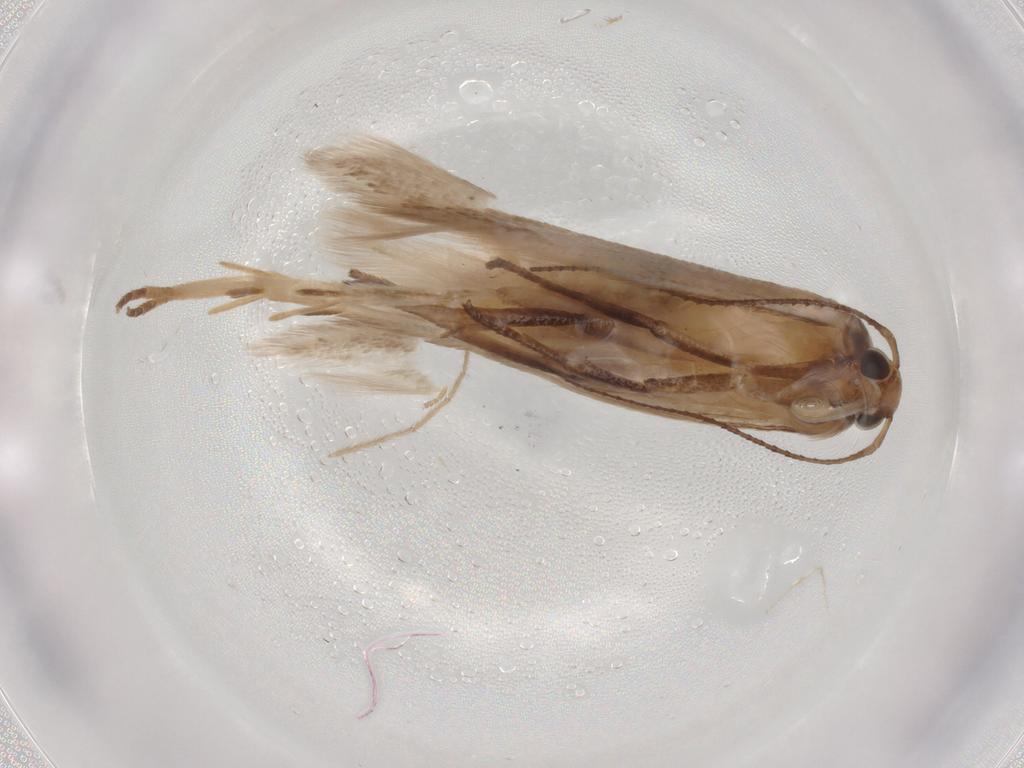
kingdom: Animalia
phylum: Arthropoda
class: Insecta
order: Lepidoptera
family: Gelechiidae
